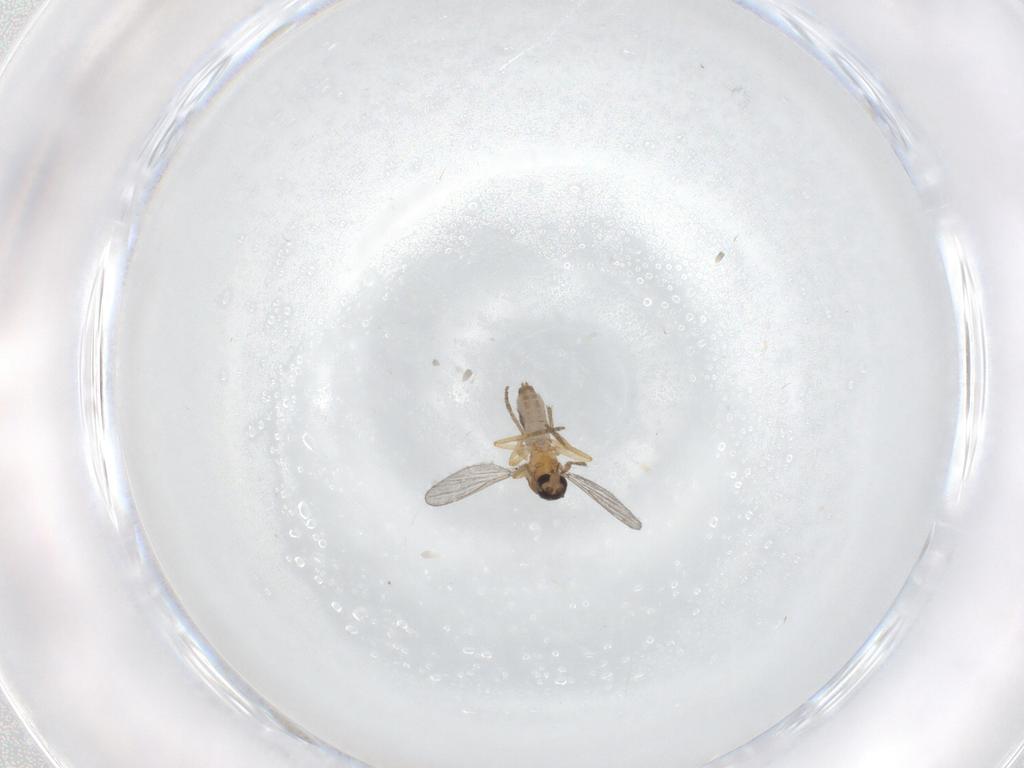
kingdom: Animalia
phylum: Arthropoda
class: Insecta
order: Diptera
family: Ceratopogonidae
